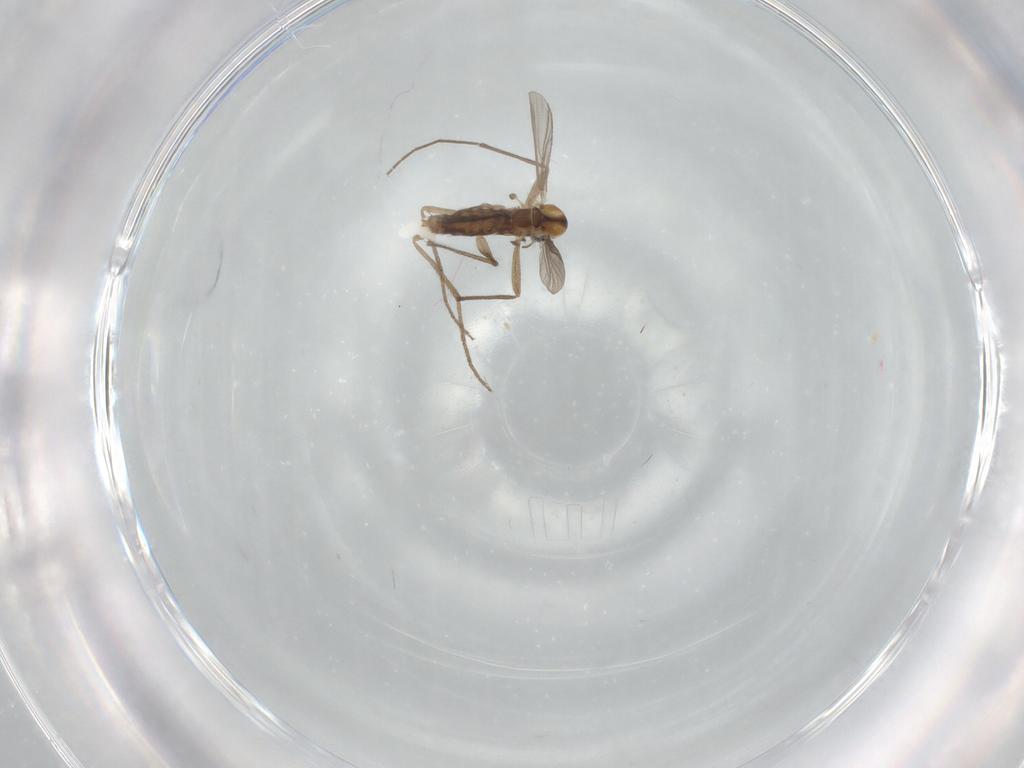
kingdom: Animalia
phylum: Arthropoda
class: Insecta
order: Diptera
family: Chironomidae
